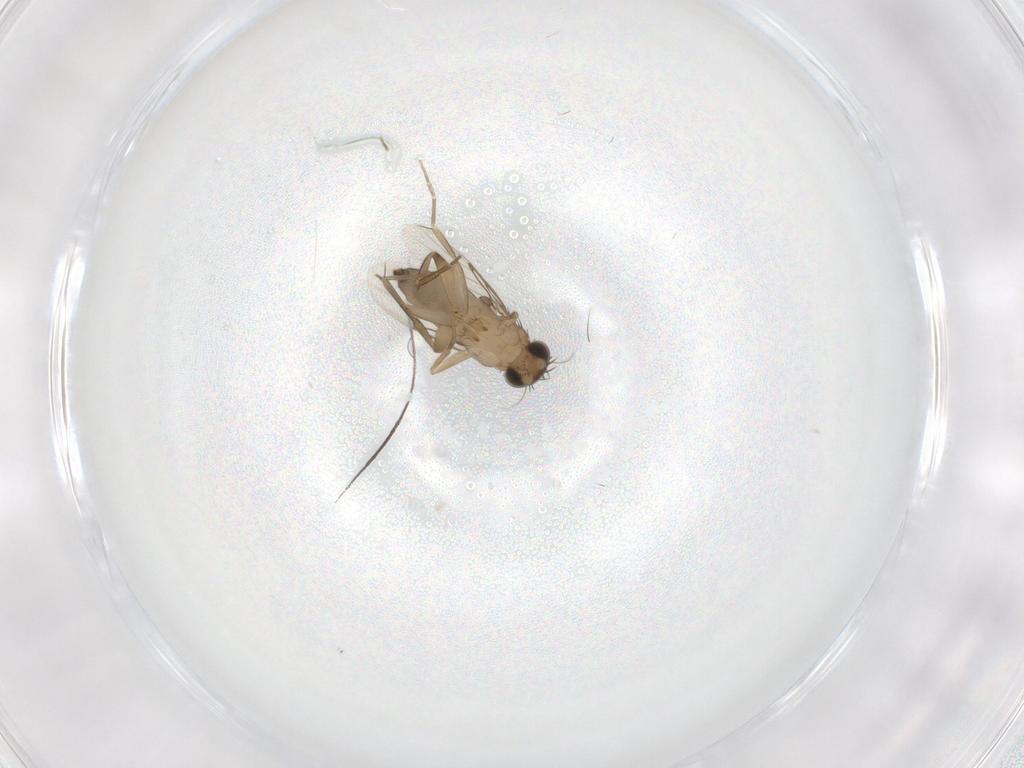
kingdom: Animalia
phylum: Arthropoda
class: Insecta
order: Diptera
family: Phoridae
